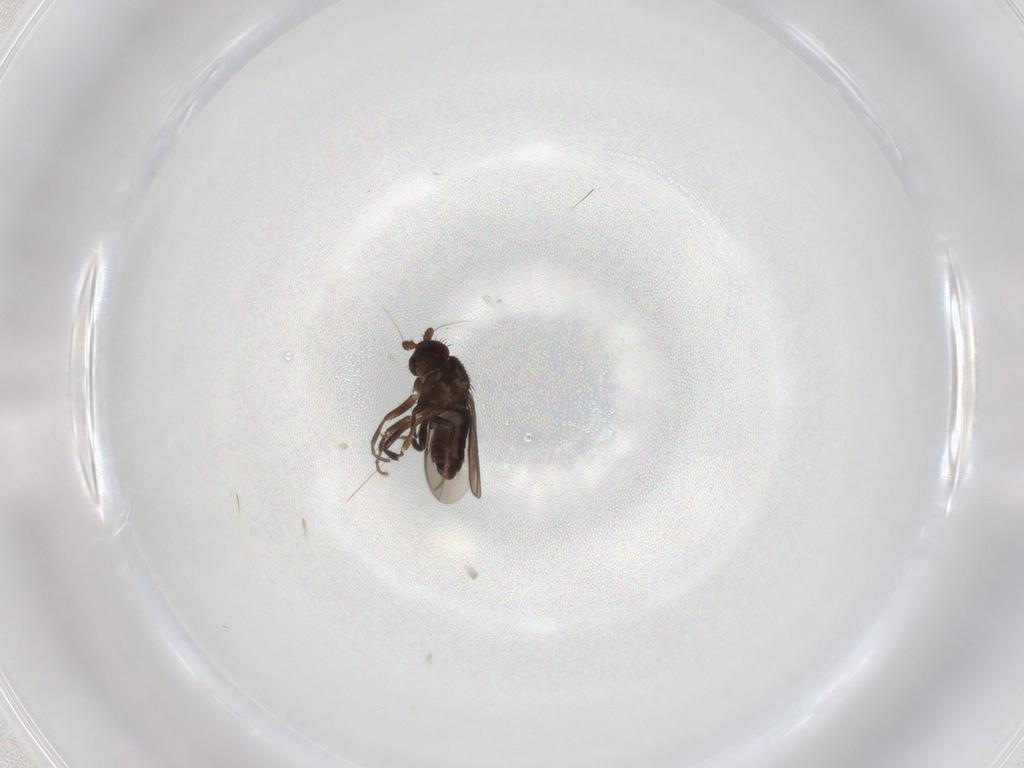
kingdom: Animalia
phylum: Arthropoda
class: Insecta
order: Diptera
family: Sphaeroceridae
